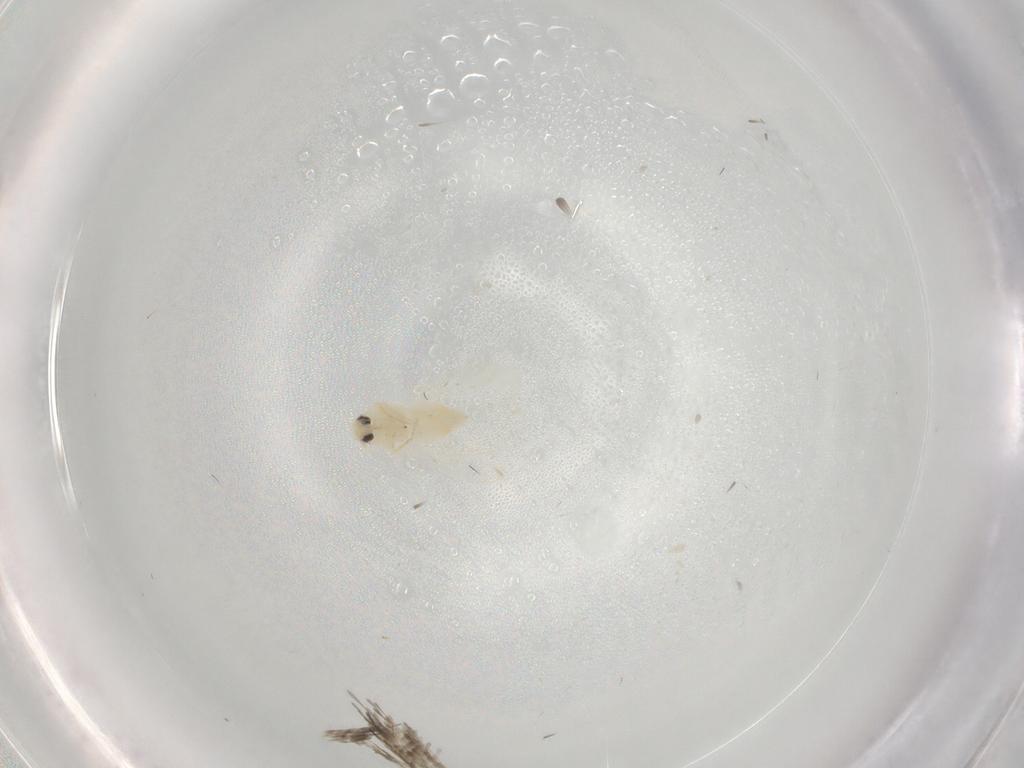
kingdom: Animalia
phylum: Arthropoda
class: Insecta
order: Hemiptera
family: Aleyrodidae
